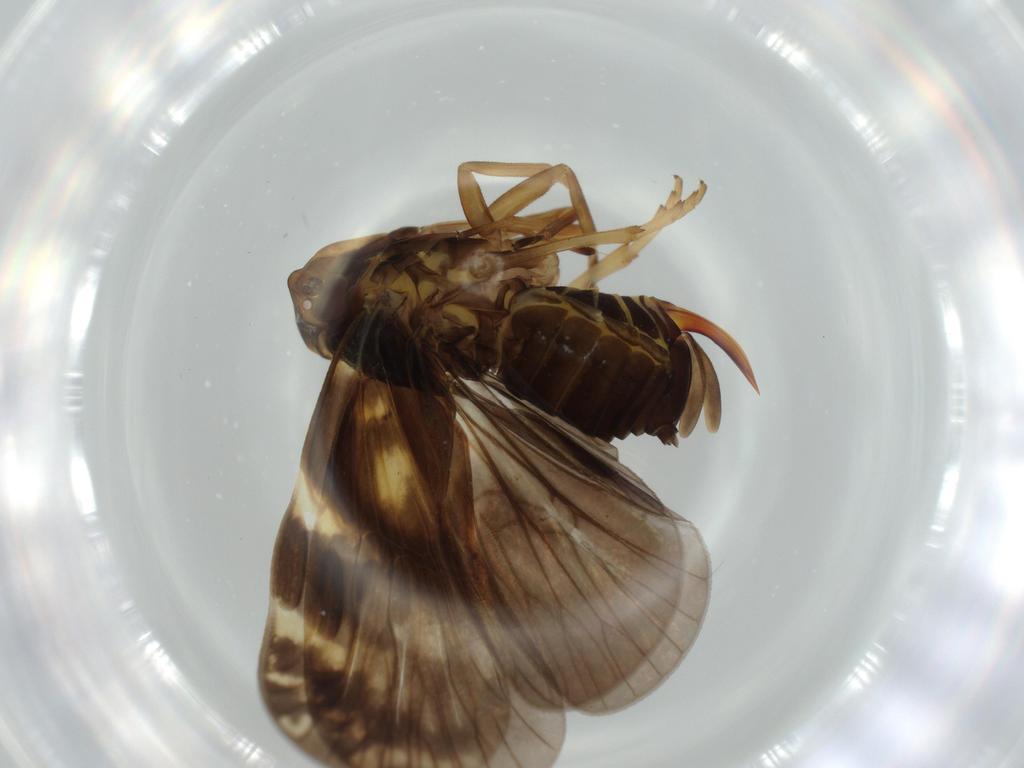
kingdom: Animalia
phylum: Arthropoda
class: Insecta
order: Hemiptera
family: Cixiidae
